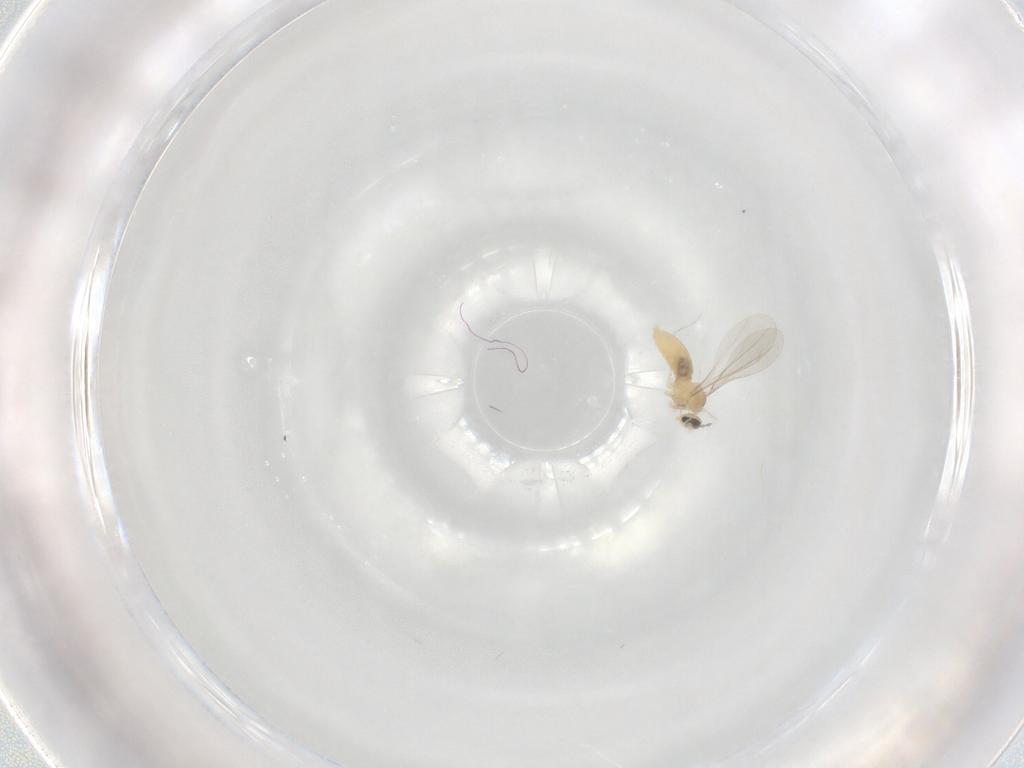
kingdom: Animalia
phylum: Arthropoda
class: Insecta
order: Diptera
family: Cecidomyiidae
